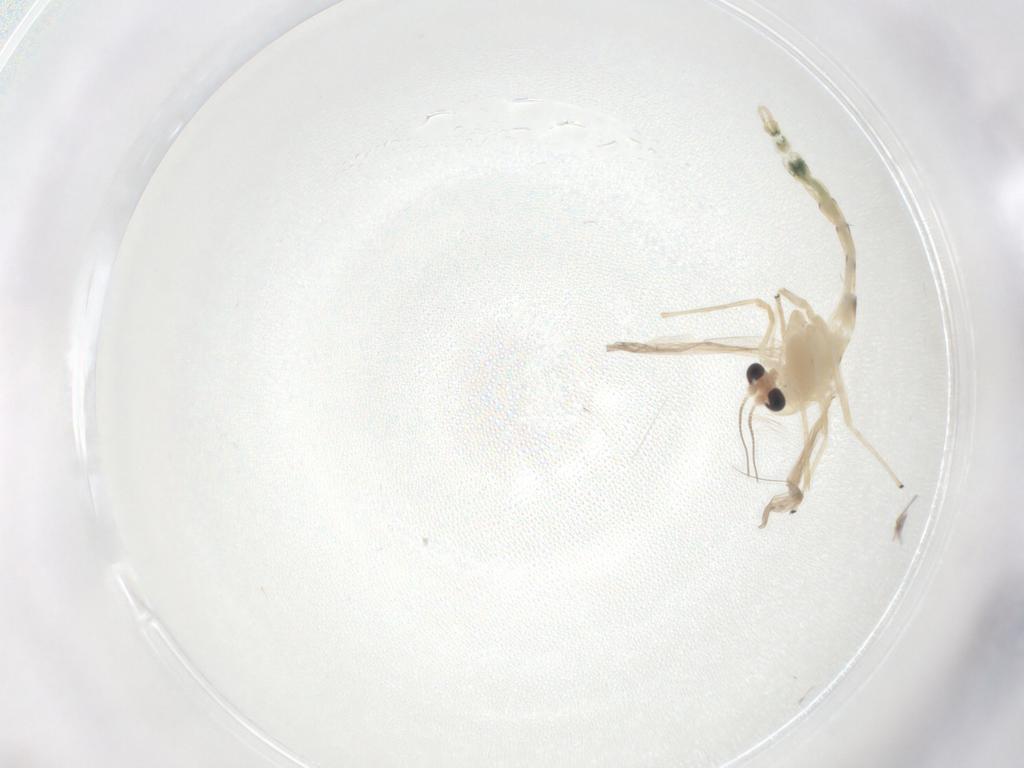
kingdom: Animalia
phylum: Arthropoda
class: Insecta
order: Diptera
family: Chironomidae
